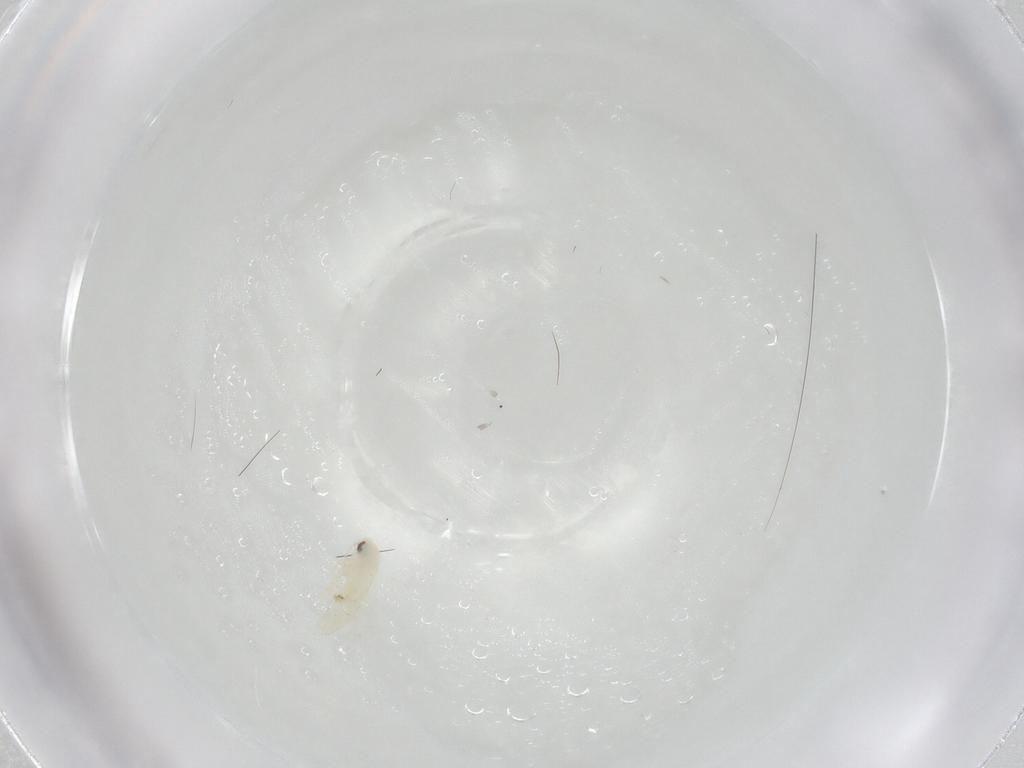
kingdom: Animalia
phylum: Arthropoda
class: Insecta
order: Hemiptera
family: Aleyrodidae
